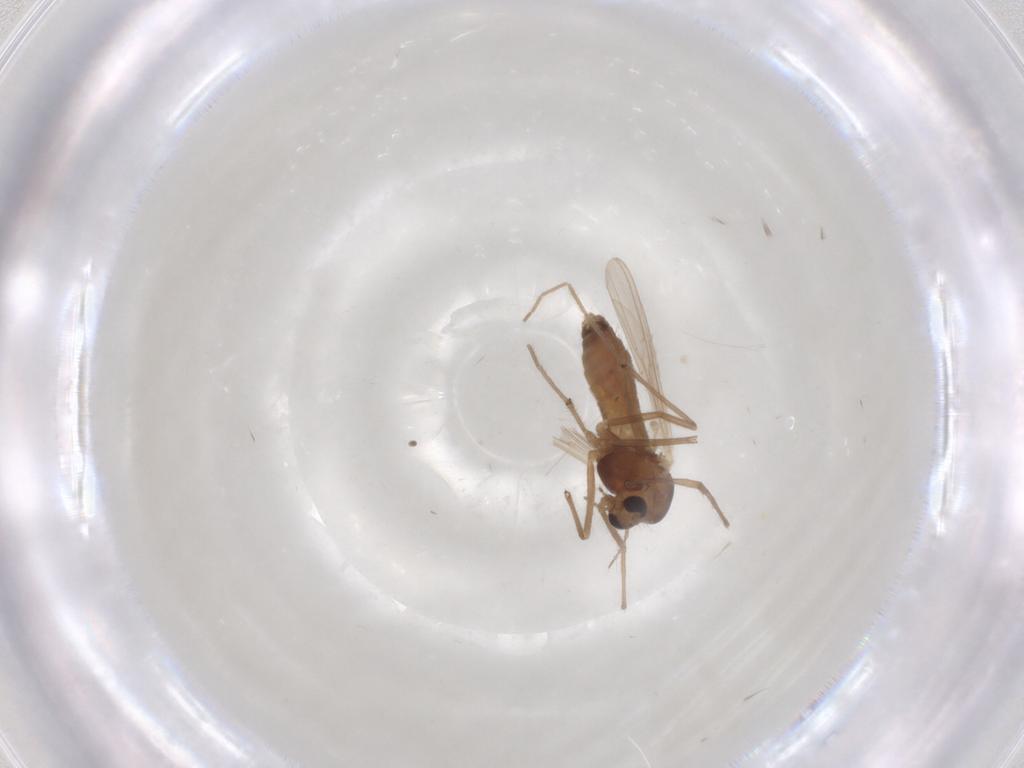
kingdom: Animalia
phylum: Arthropoda
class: Insecta
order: Diptera
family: Chironomidae
